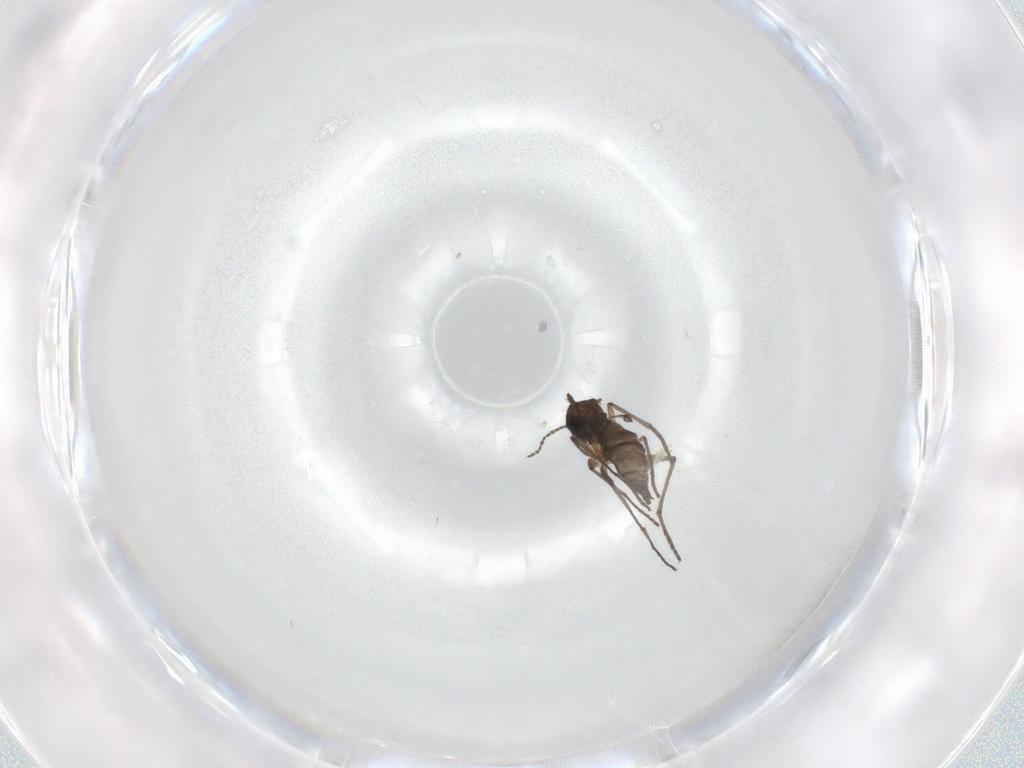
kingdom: Animalia
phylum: Arthropoda
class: Insecta
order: Diptera
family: Sciaridae
